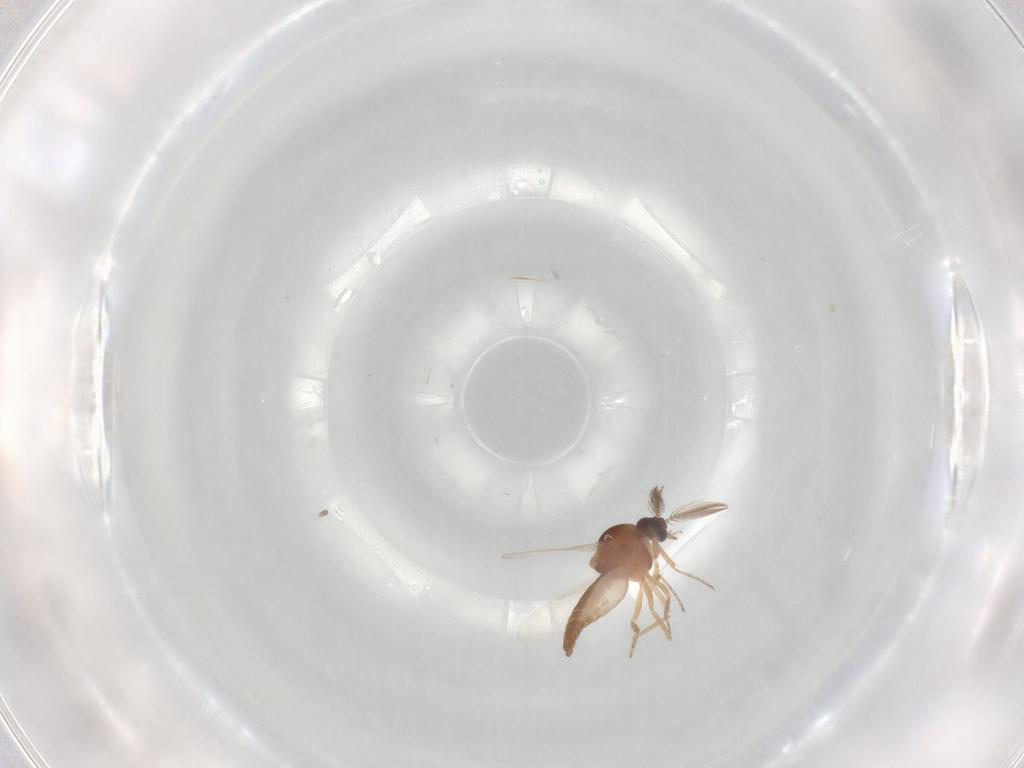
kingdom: Animalia
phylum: Arthropoda
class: Insecta
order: Diptera
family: Ceratopogonidae
